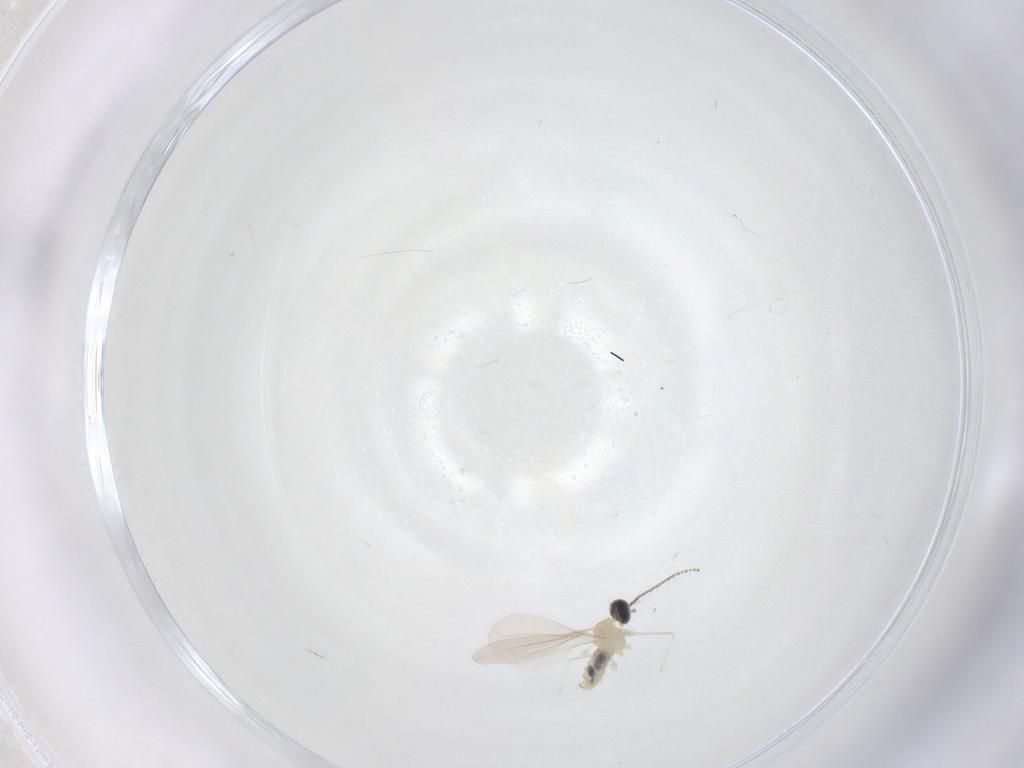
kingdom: Animalia
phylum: Arthropoda
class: Insecta
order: Diptera
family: Cecidomyiidae
